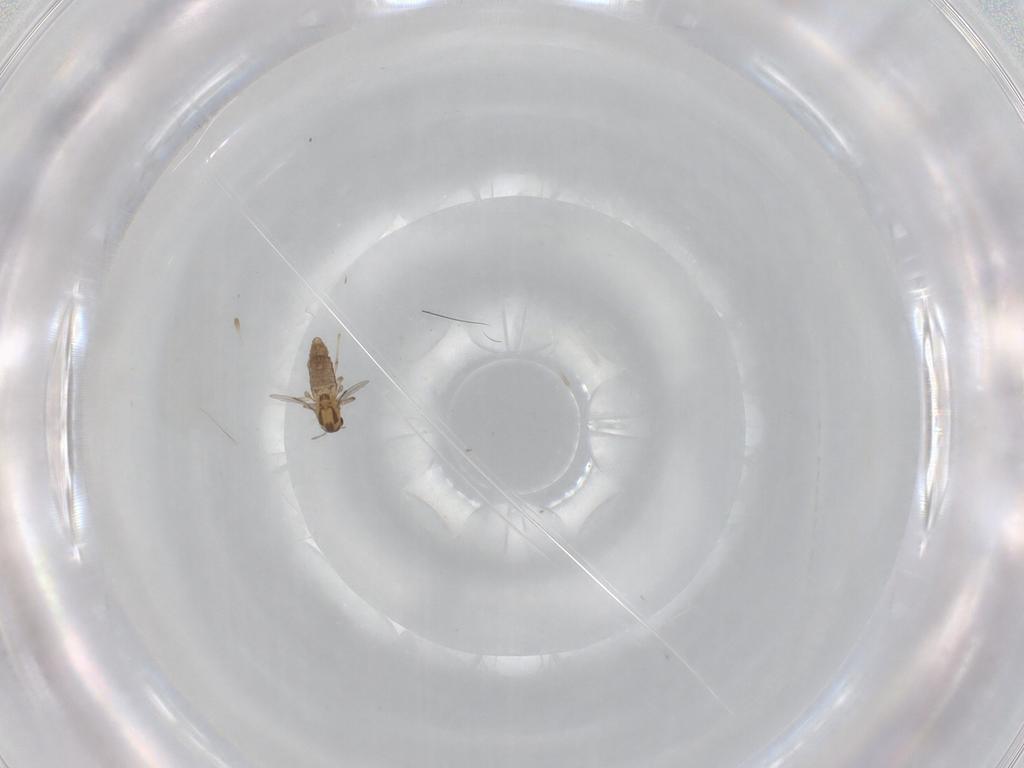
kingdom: Animalia
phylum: Arthropoda
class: Insecta
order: Diptera
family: Chironomidae
